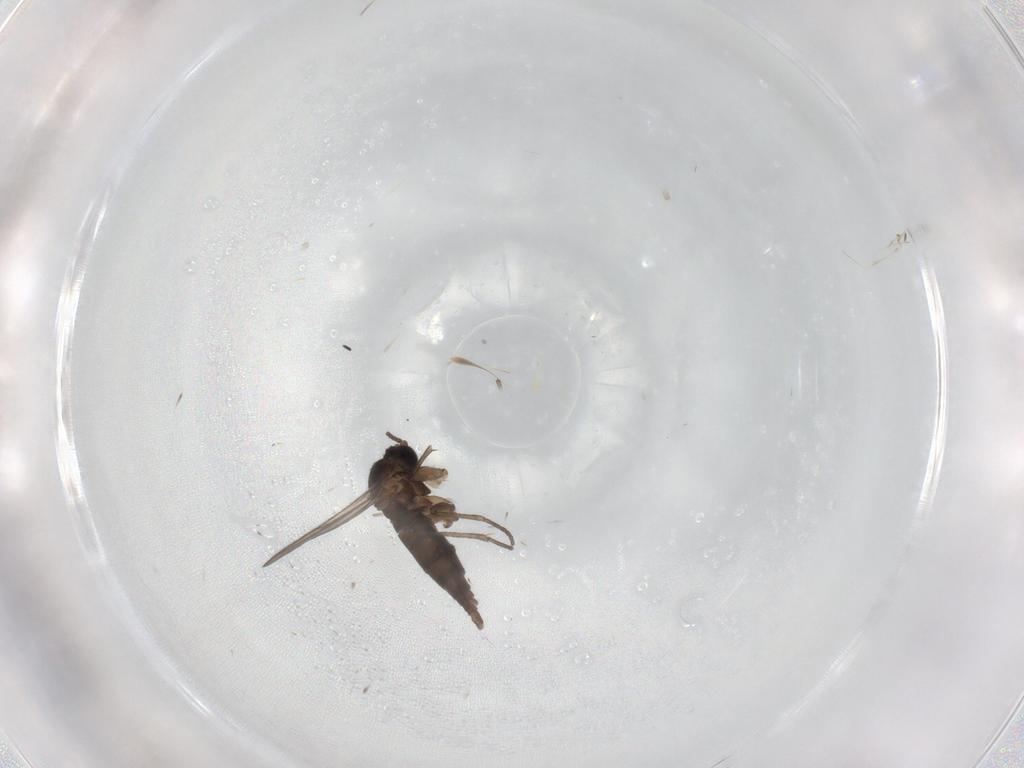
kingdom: Animalia
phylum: Arthropoda
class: Insecta
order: Diptera
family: Sciaridae
